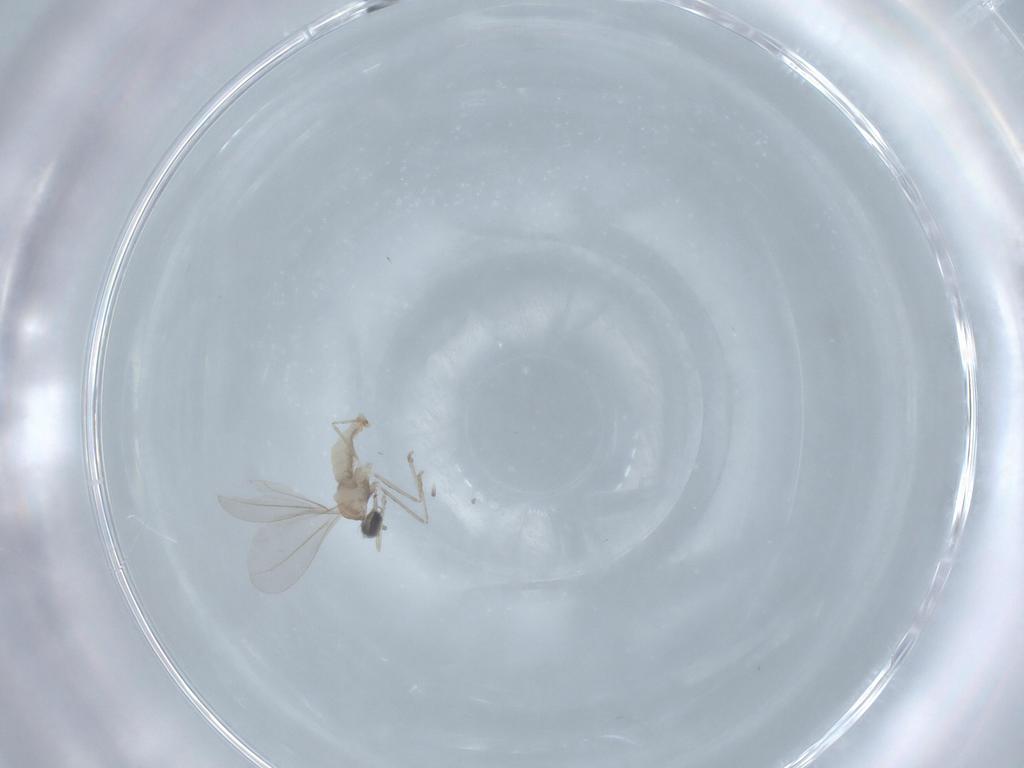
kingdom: Animalia
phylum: Arthropoda
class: Insecta
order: Diptera
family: Cecidomyiidae
